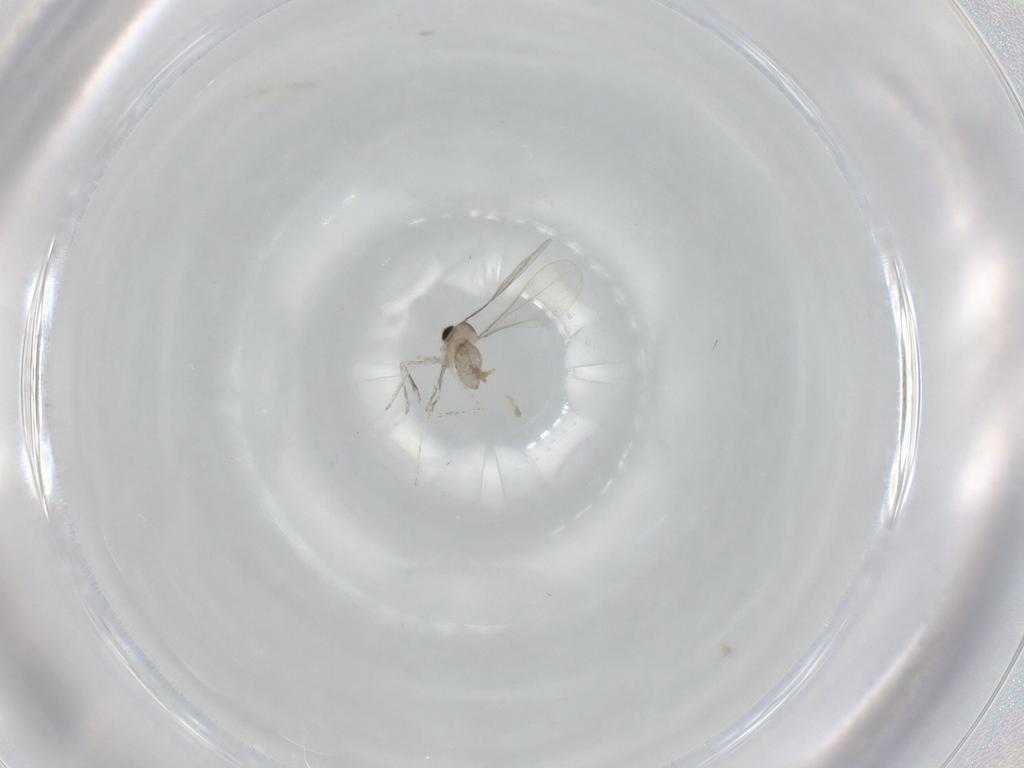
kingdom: Animalia
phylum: Arthropoda
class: Insecta
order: Diptera
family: Cecidomyiidae
